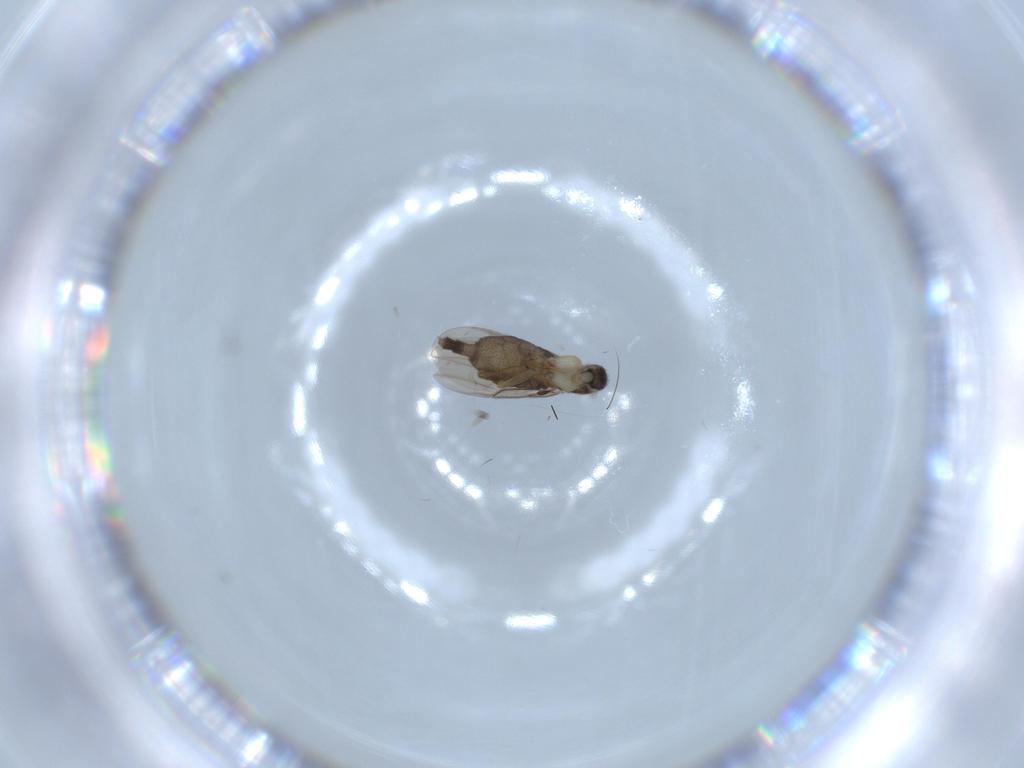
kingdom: Animalia
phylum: Arthropoda
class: Insecta
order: Diptera
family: Phoridae
